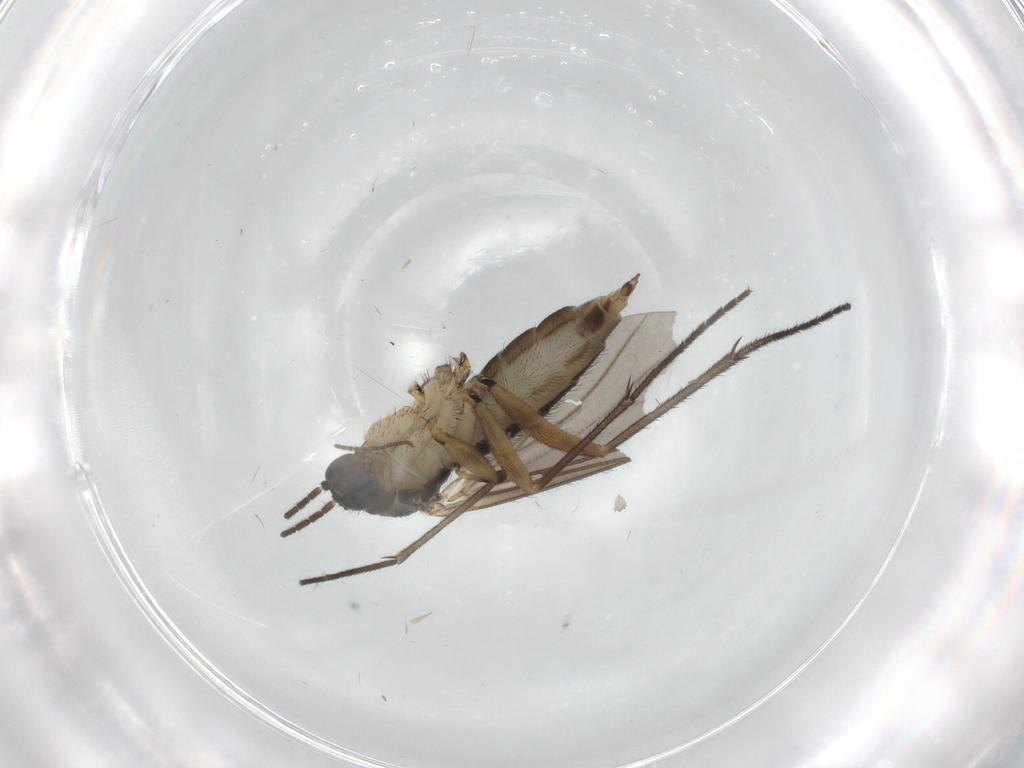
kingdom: Animalia
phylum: Arthropoda
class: Insecta
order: Diptera
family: Sciaridae
